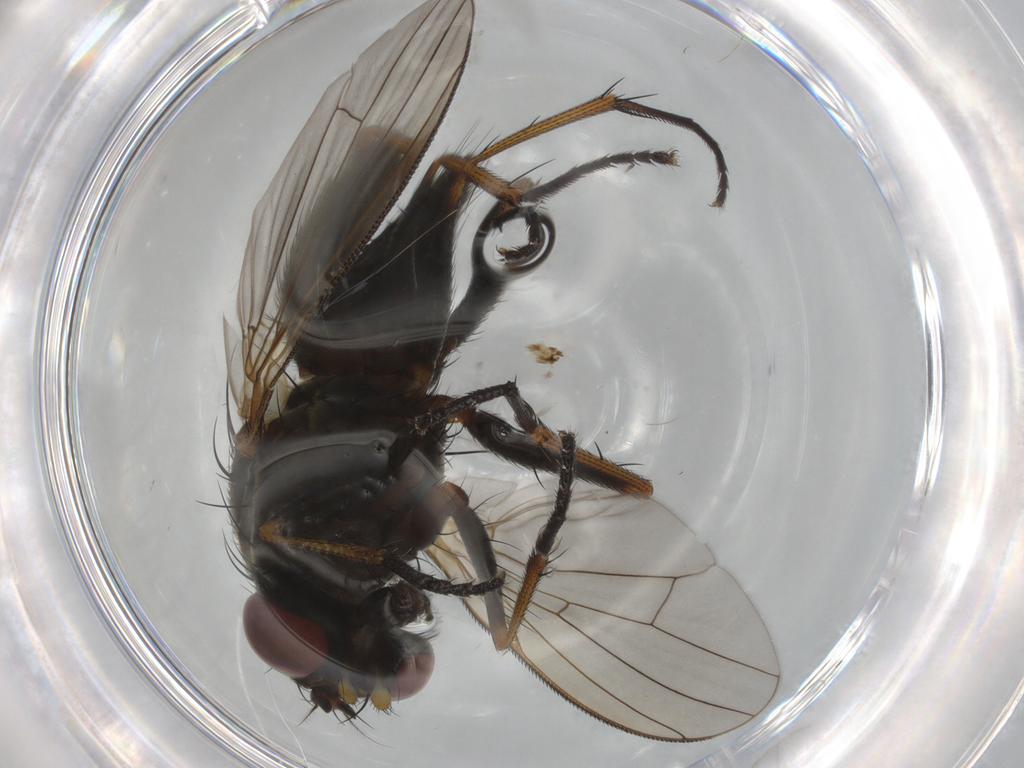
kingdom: Animalia
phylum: Arthropoda
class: Insecta
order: Diptera
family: Muscidae
